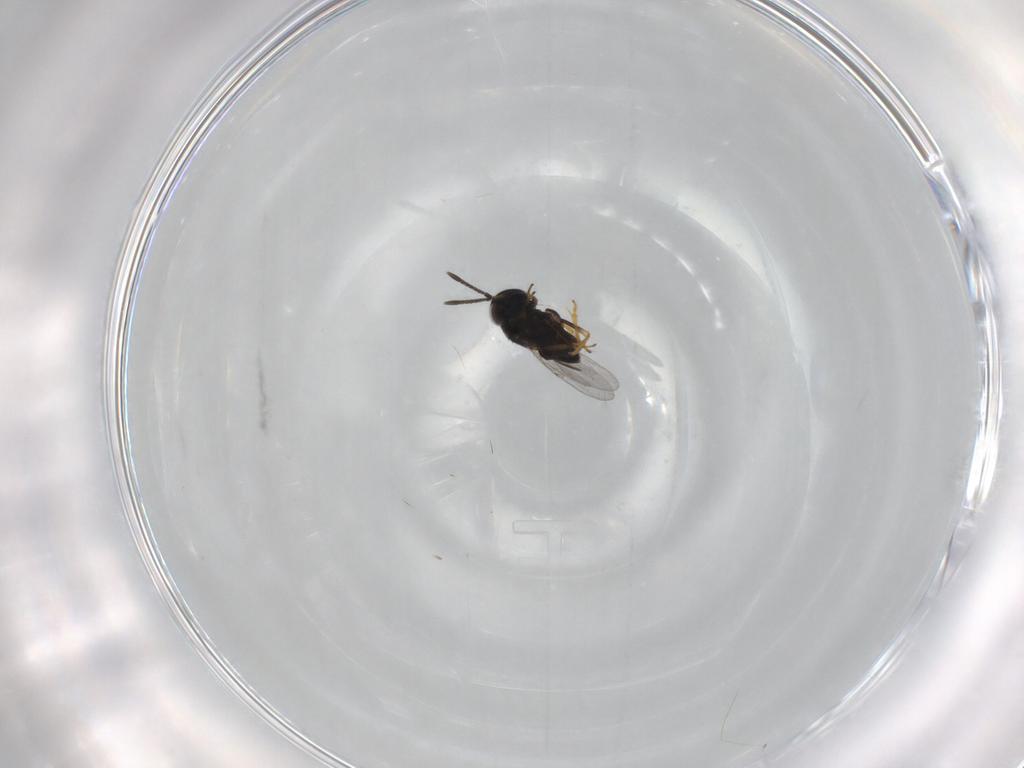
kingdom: Animalia
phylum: Arthropoda
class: Insecta
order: Hymenoptera
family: Encyrtidae
